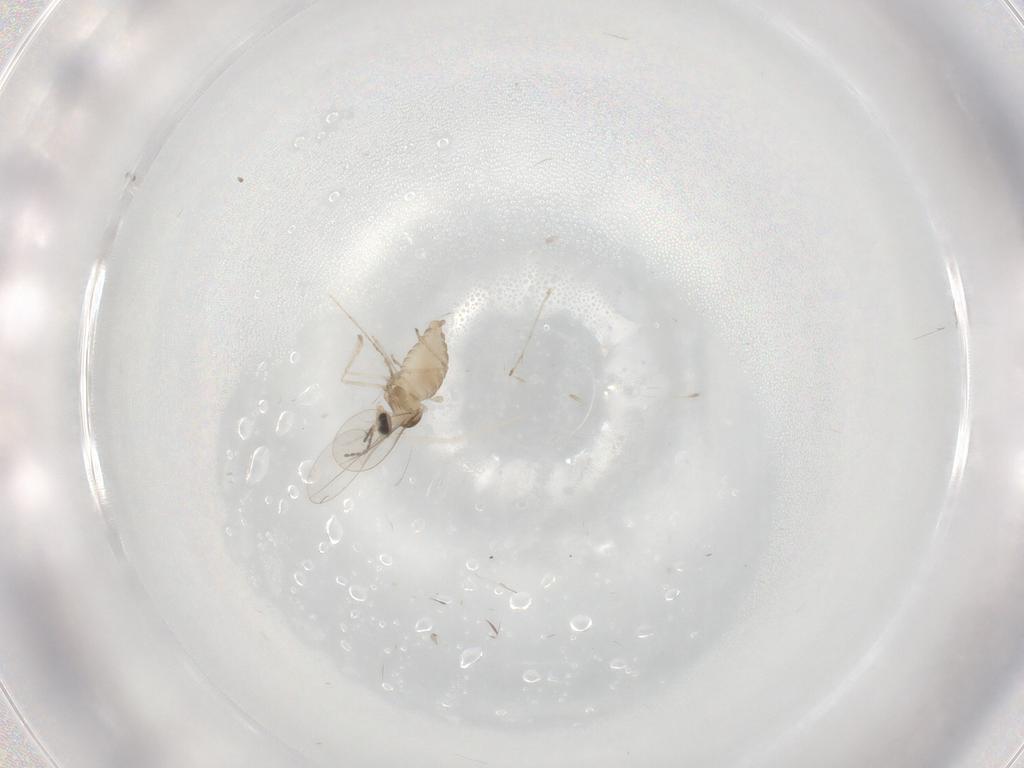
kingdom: Animalia
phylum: Arthropoda
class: Insecta
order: Diptera
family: Cecidomyiidae
